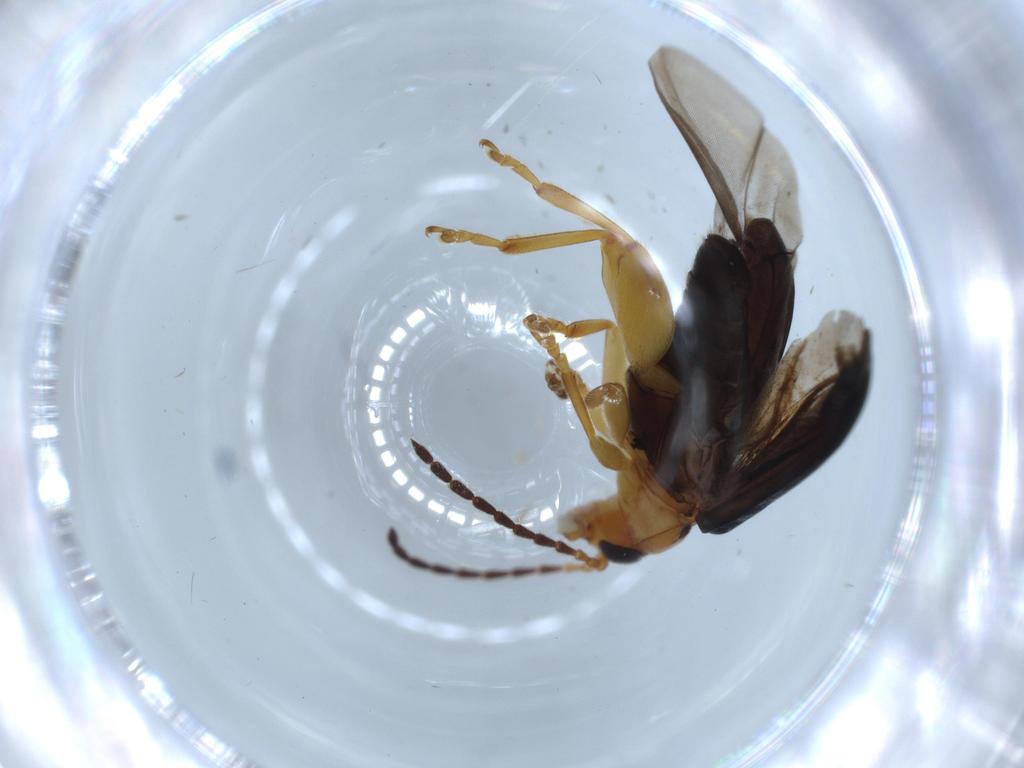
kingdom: Animalia
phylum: Arthropoda
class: Insecta
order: Coleoptera
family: Chrysomelidae
